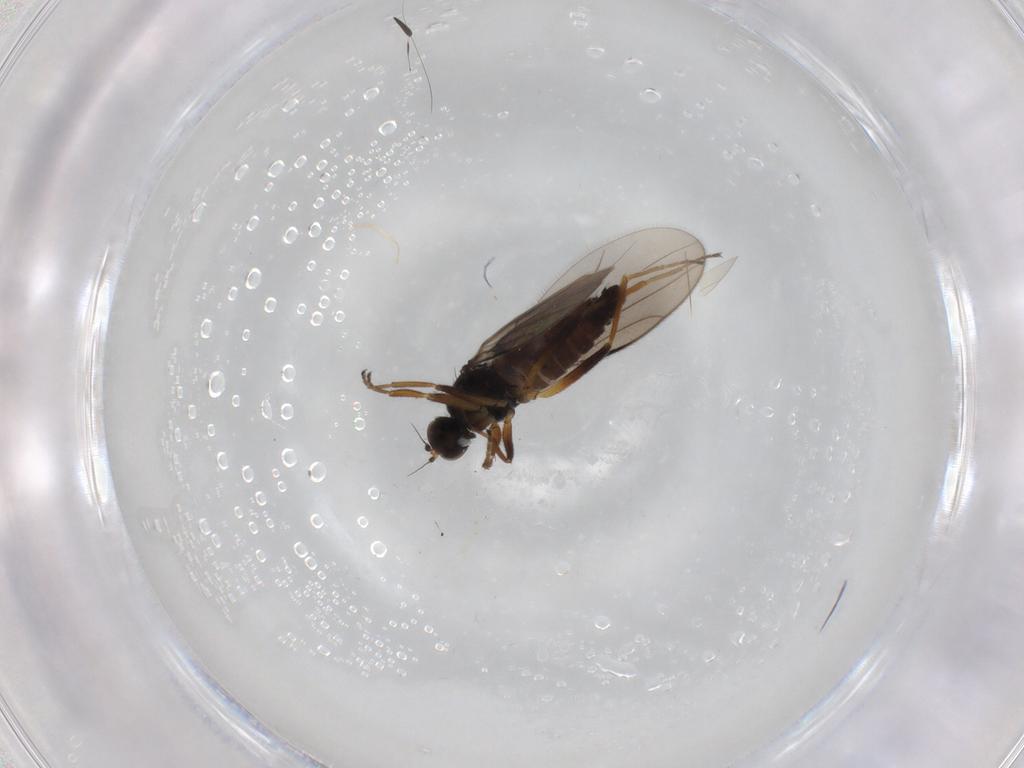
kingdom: Animalia
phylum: Arthropoda
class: Insecta
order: Diptera
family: Hybotidae
